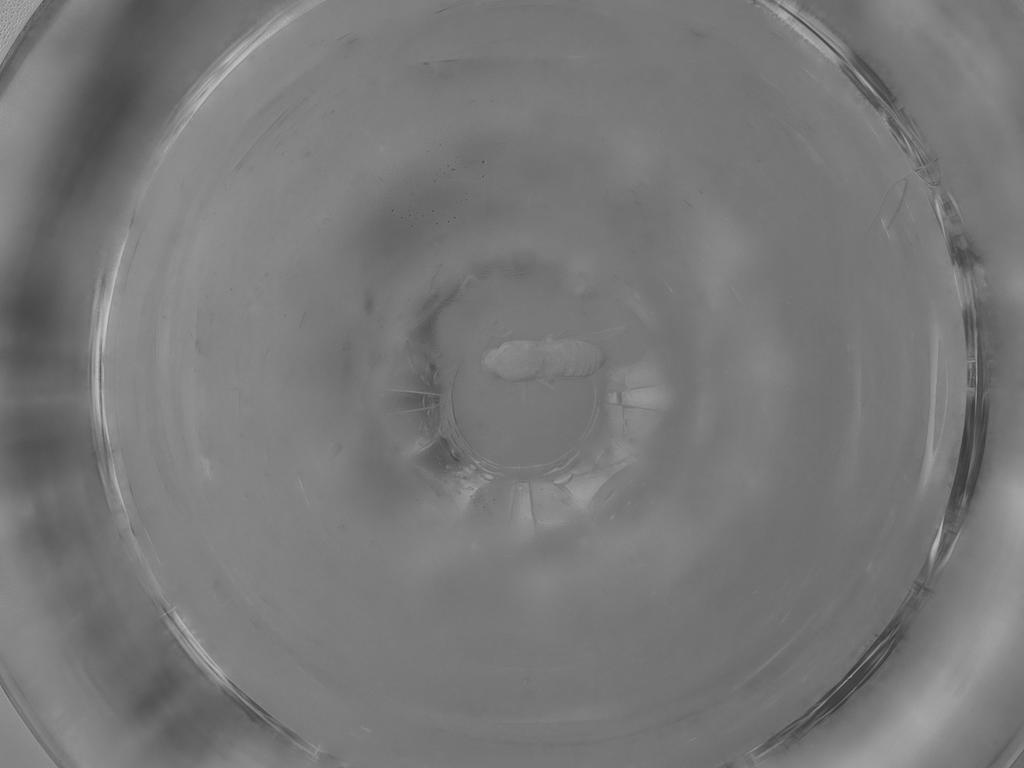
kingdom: Animalia
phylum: Arthropoda
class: Insecta
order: Diptera
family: Ceratopogonidae
